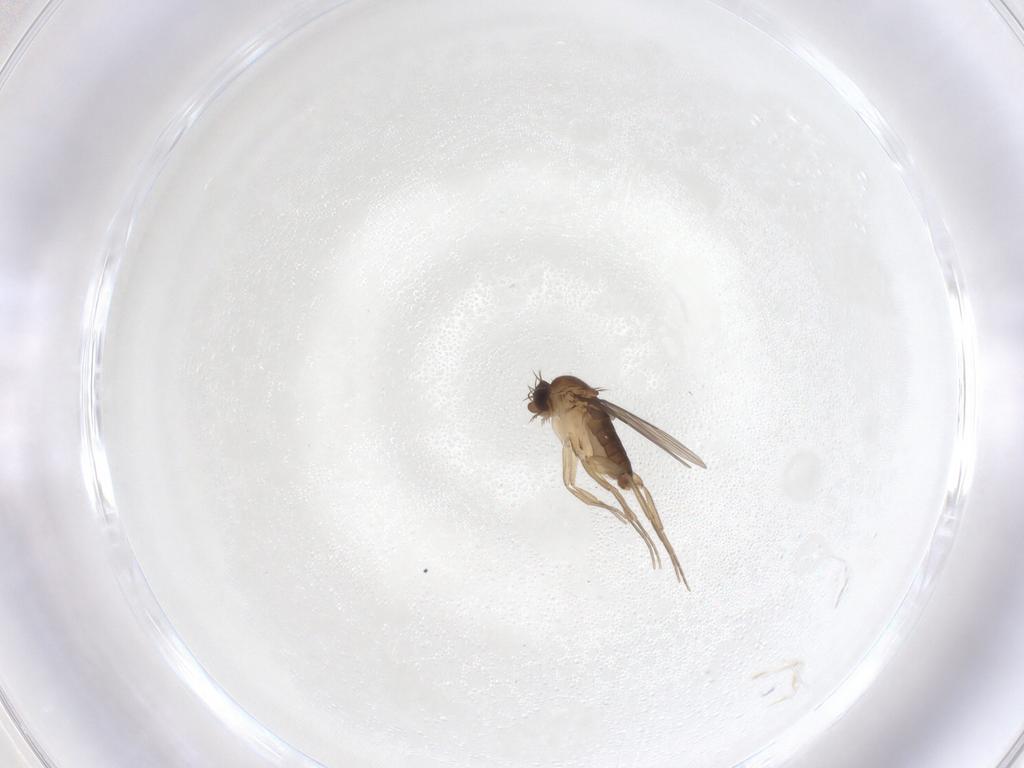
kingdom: Animalia
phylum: Arthropoda
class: Insecta
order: Diptera
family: Phoridae
